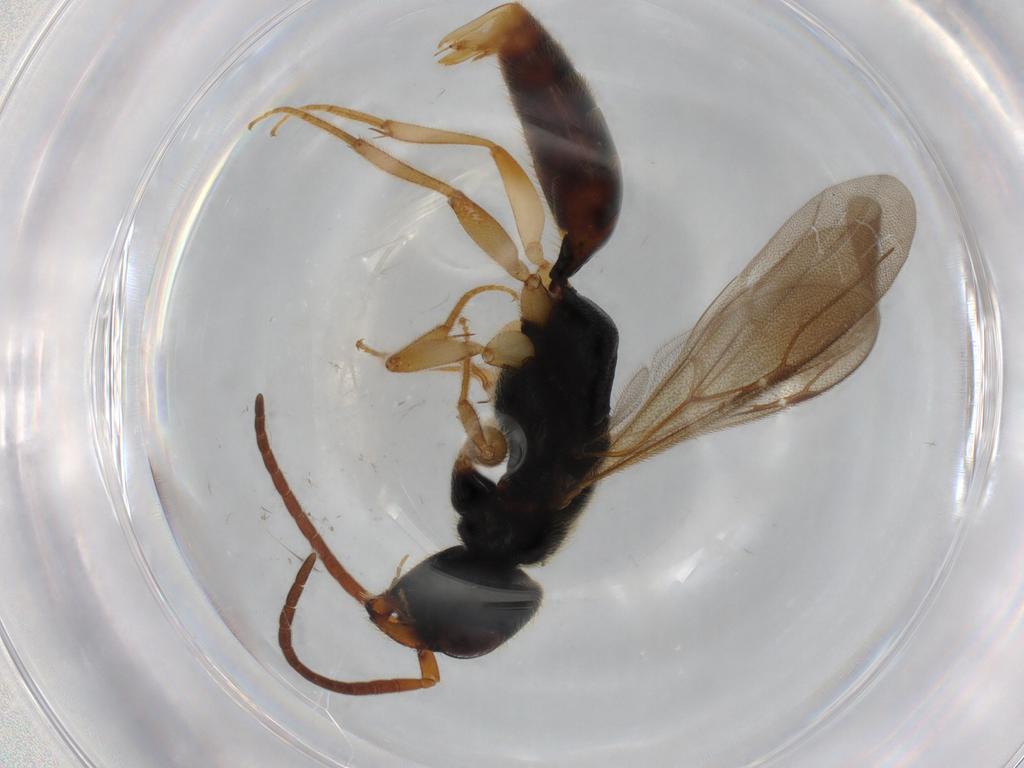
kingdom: Animalia
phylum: Arthropoda
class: Insecta
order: Hymenoptera
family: Bethylidae
